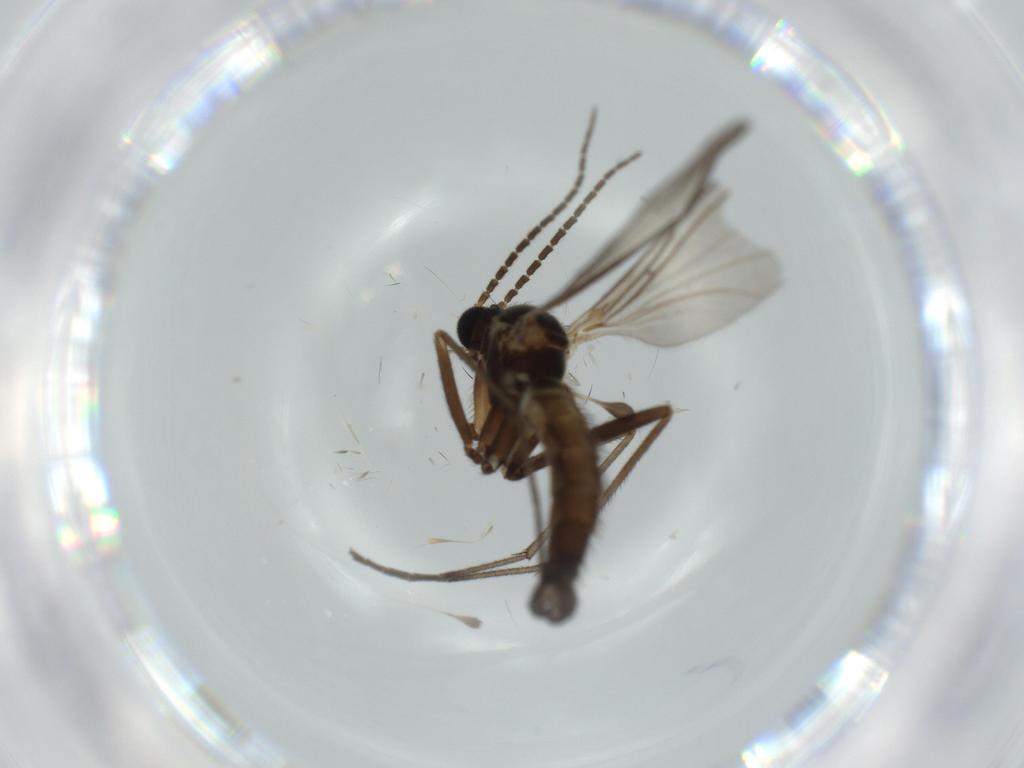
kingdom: Animalia
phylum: Arthropoda
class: Insecta
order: Diptera
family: Sciaridae
